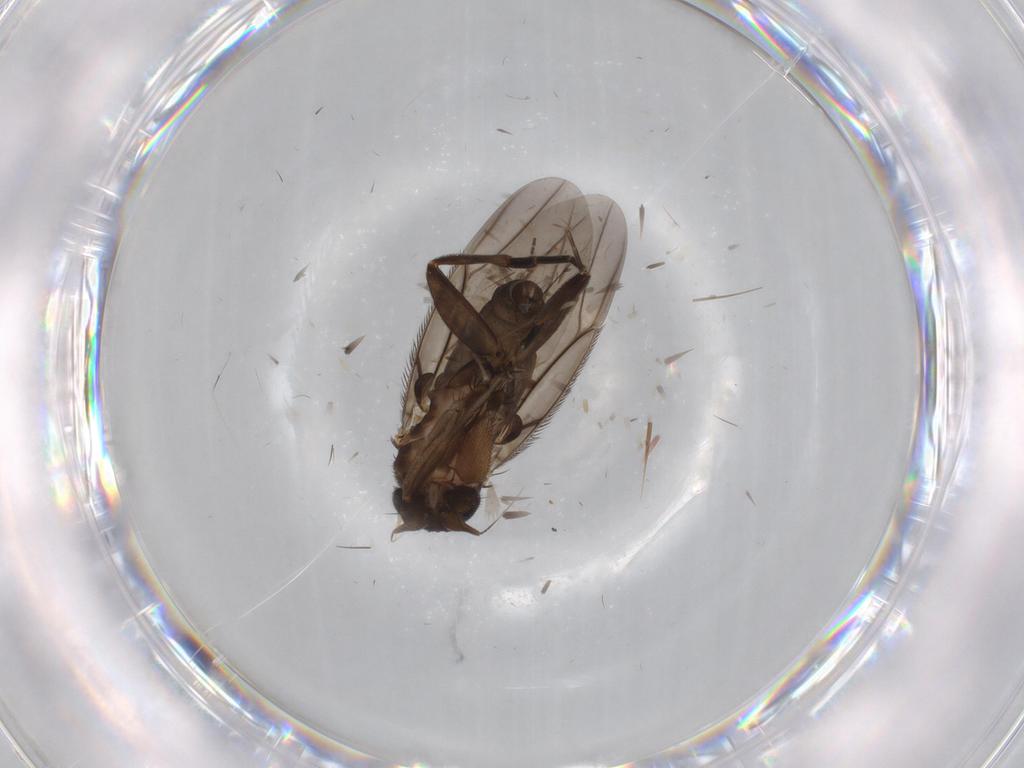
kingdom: Animalia
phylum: Arthropoda
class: Insecta
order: Diptera
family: Phoridae
